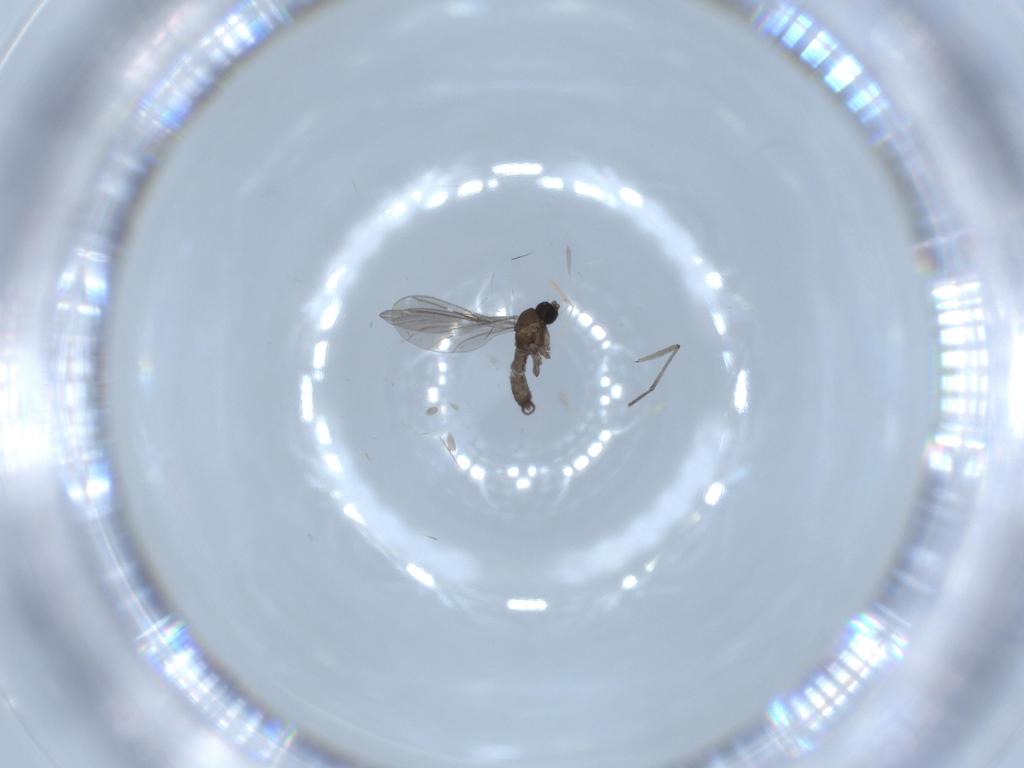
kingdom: Animalia
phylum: Arthropoda
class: Insecta
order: Diptera
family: Sciaridae
